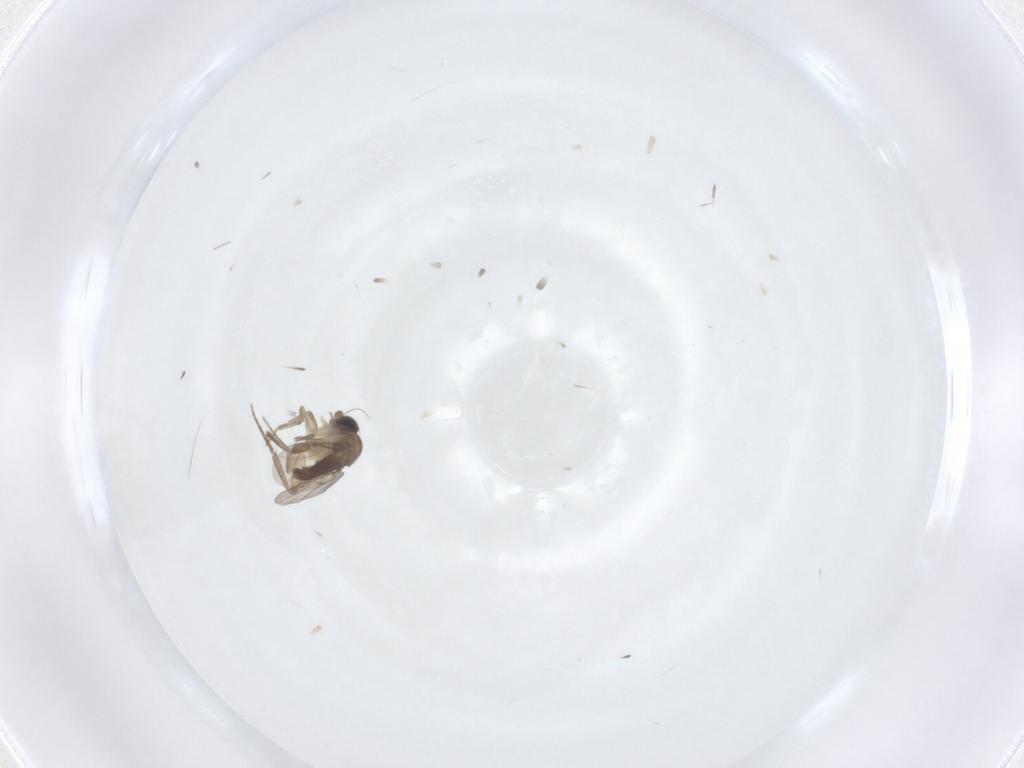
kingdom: Animalia
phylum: Arthropoda
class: Insecta
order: Diptera
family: Phoridae
